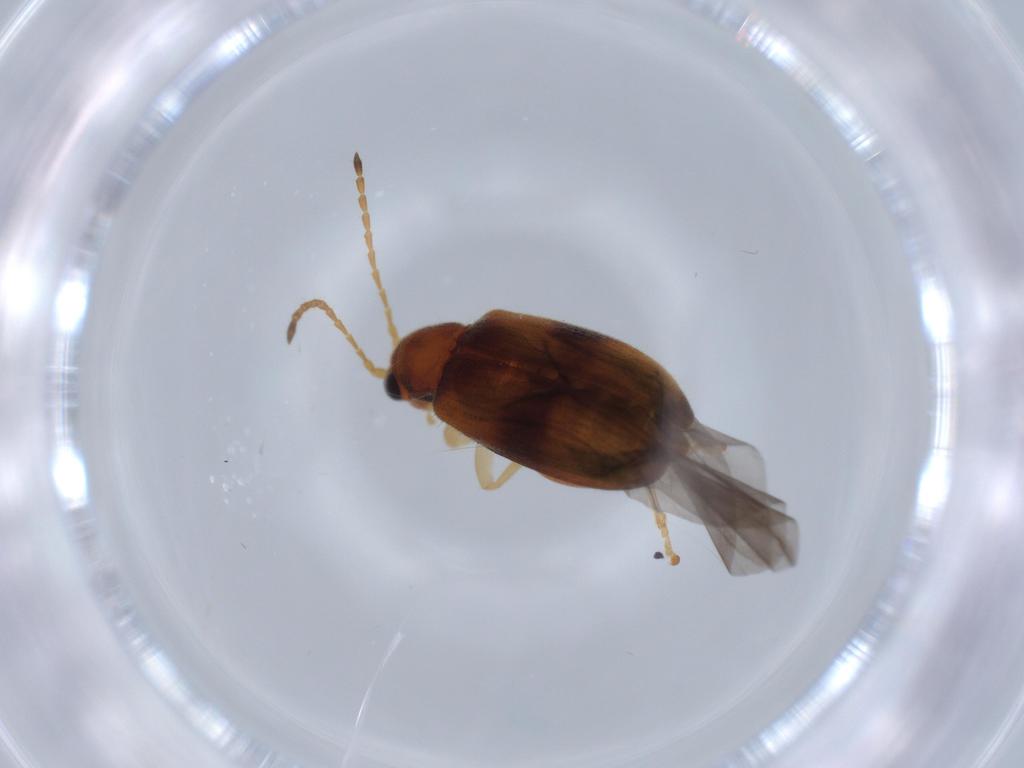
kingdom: Animalia
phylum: Arthropoda
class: Insecta
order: Coleoptera
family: Chrysomelidae
